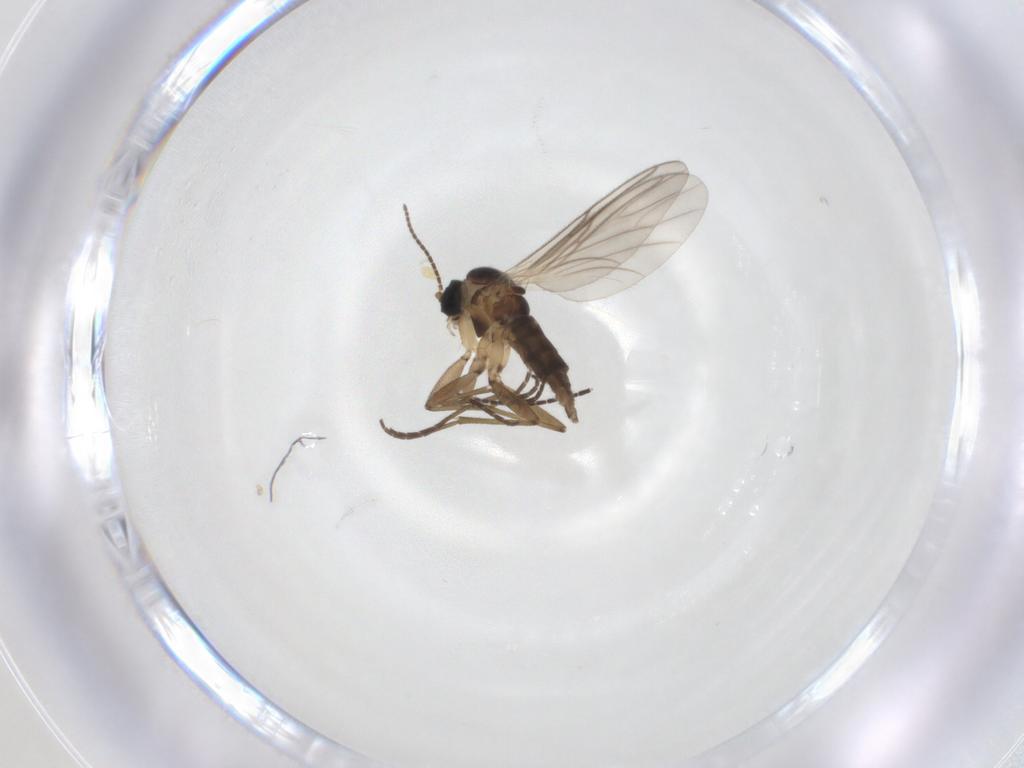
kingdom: Animalia
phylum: Arthropoda
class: Insecta
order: Diptera
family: Sciaridae
